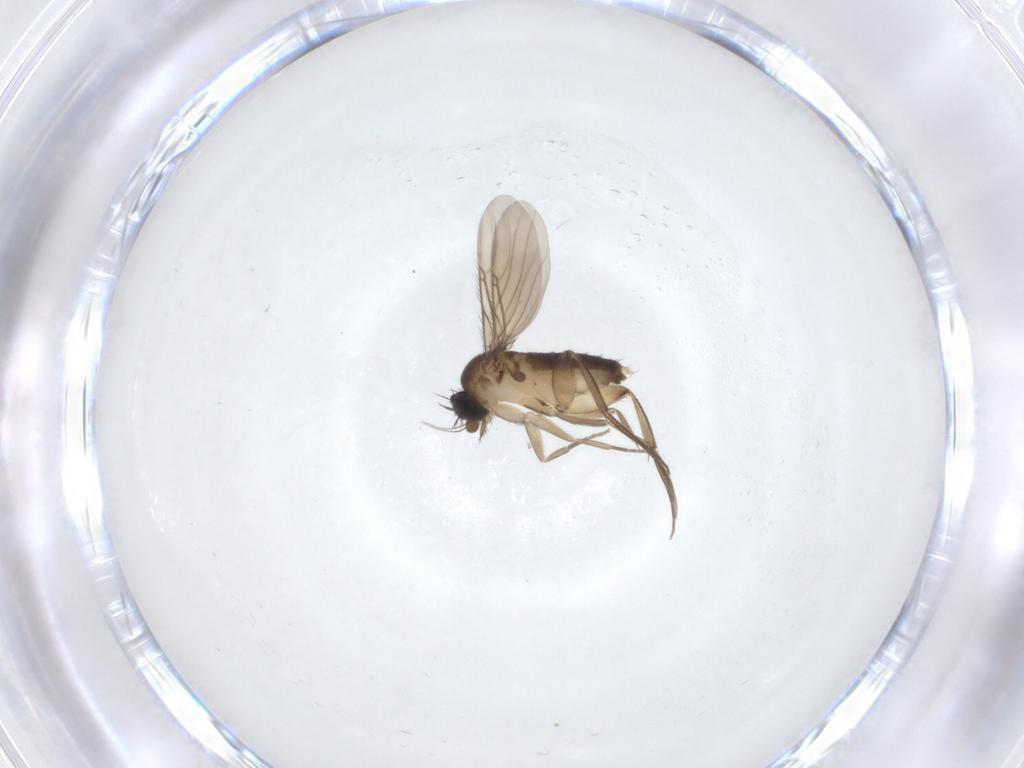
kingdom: Animalia
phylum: Arthropoda
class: Insecta
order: Diptera
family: Phoridae
